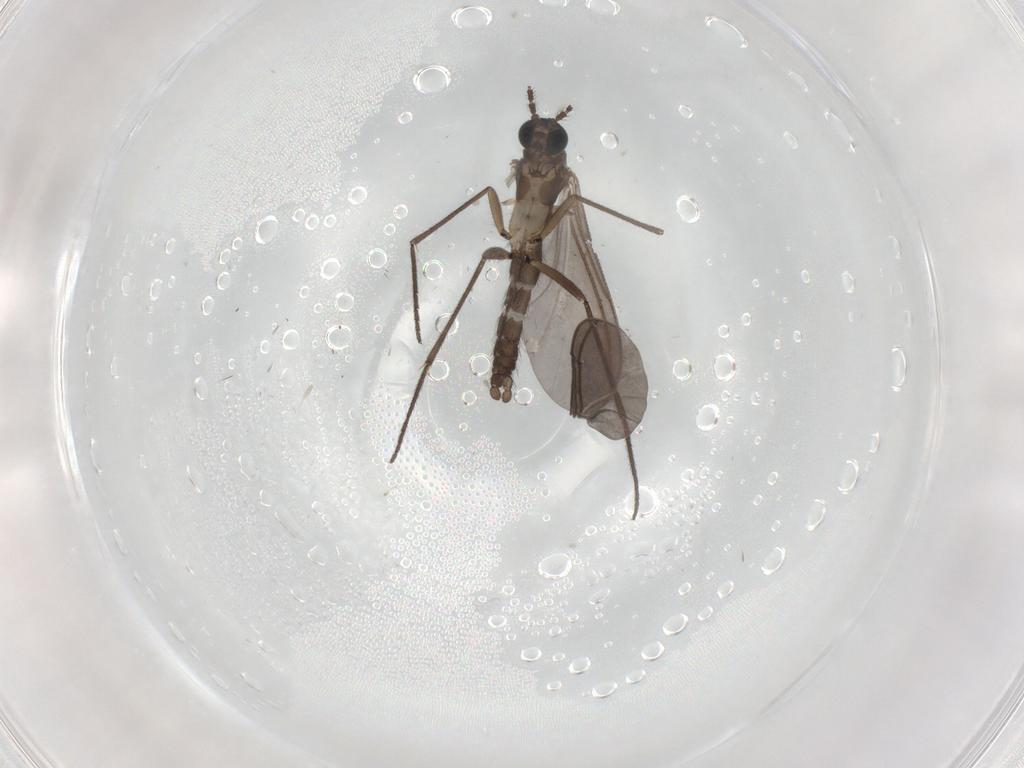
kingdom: Animalia
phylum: Arthropoda
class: Insecta
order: Diptera
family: Sciaridae
